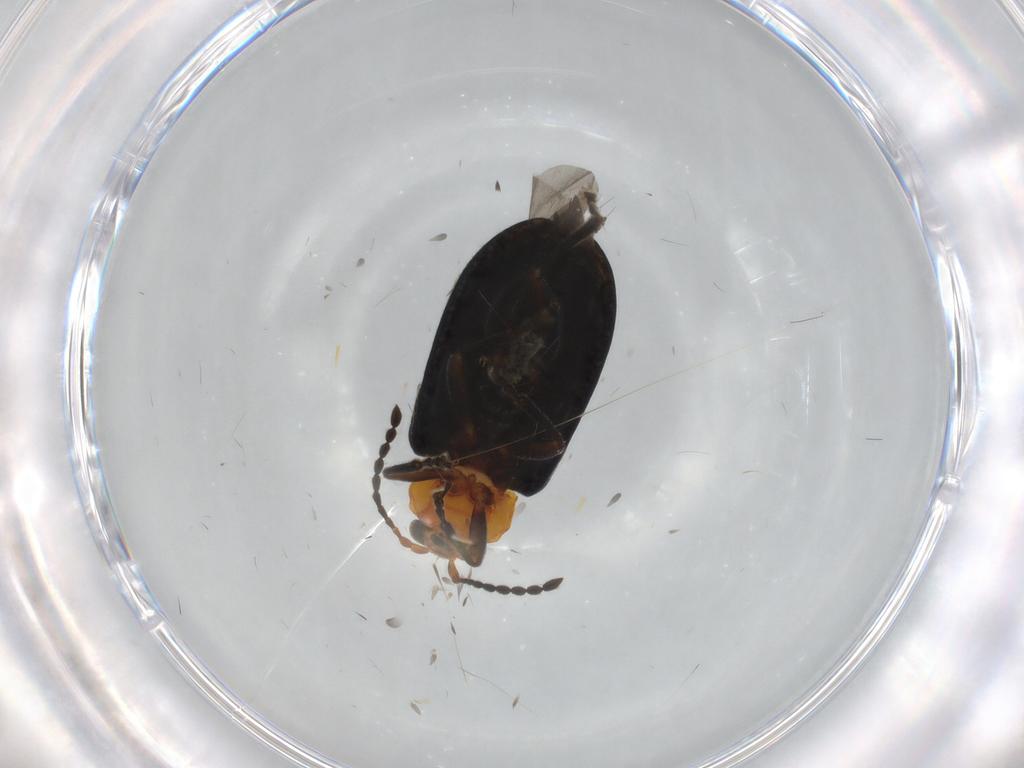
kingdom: Animalia
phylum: Arthropoda
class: Insecta
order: Coleoptera
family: Chrysomelidae
